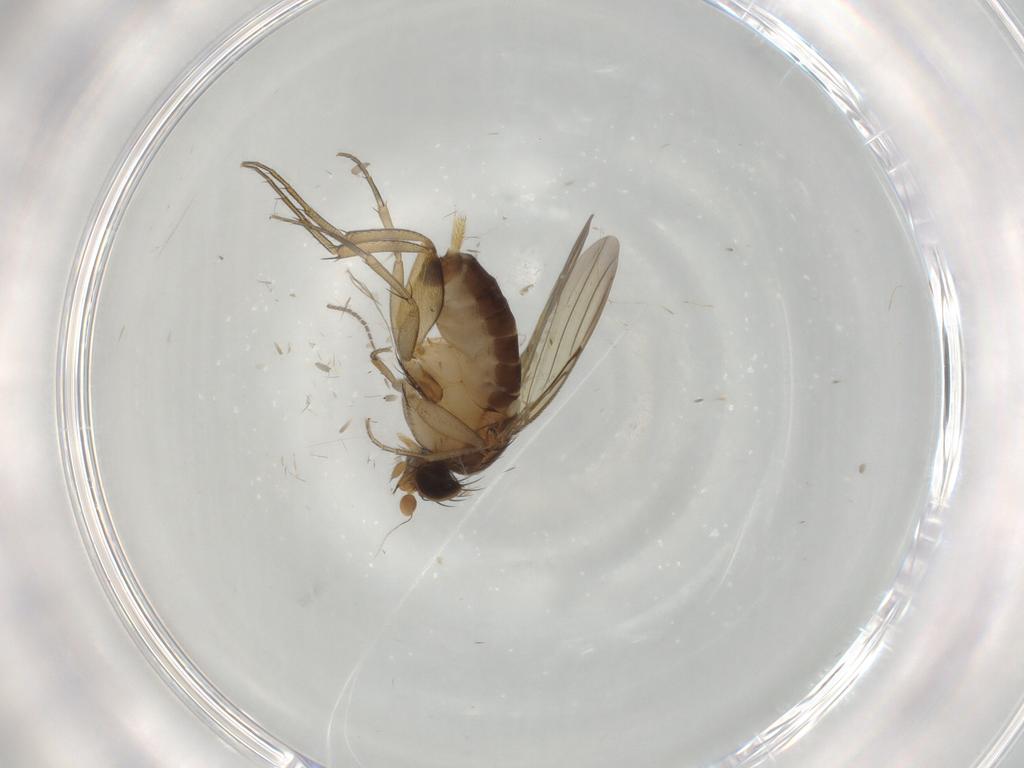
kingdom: Animalia
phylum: Arthropoda
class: Insecta
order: Diptera
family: Phoridae
